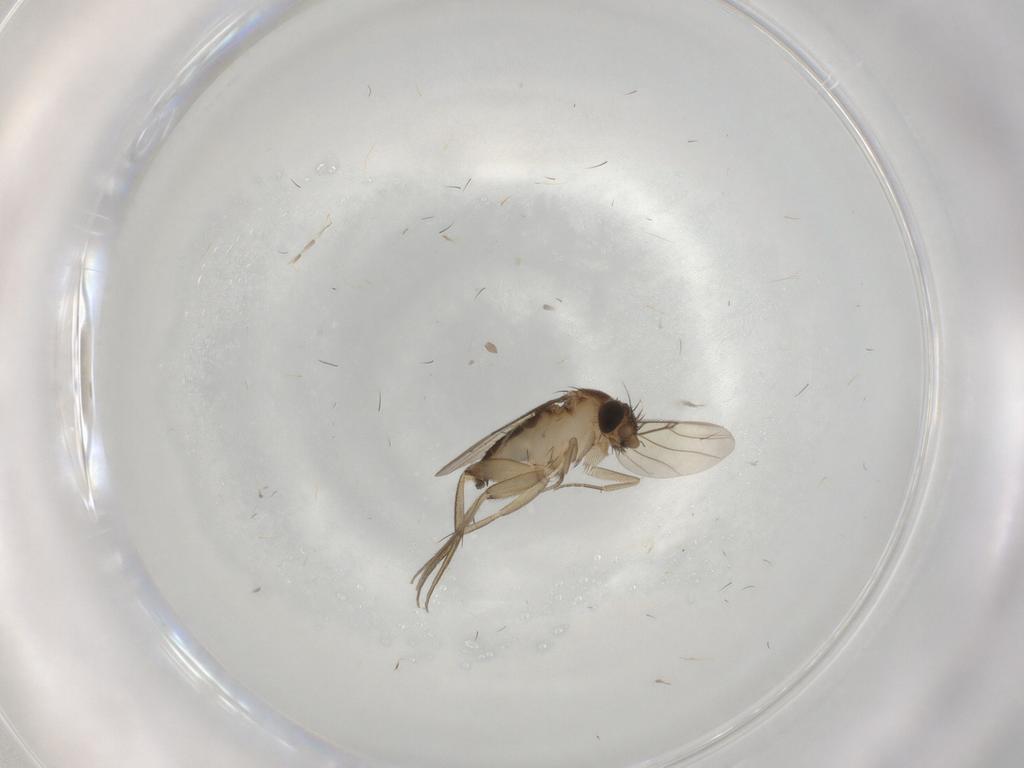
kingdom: Animalia
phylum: Arthropoda
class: Insecta
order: Diptera
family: Phoridae
